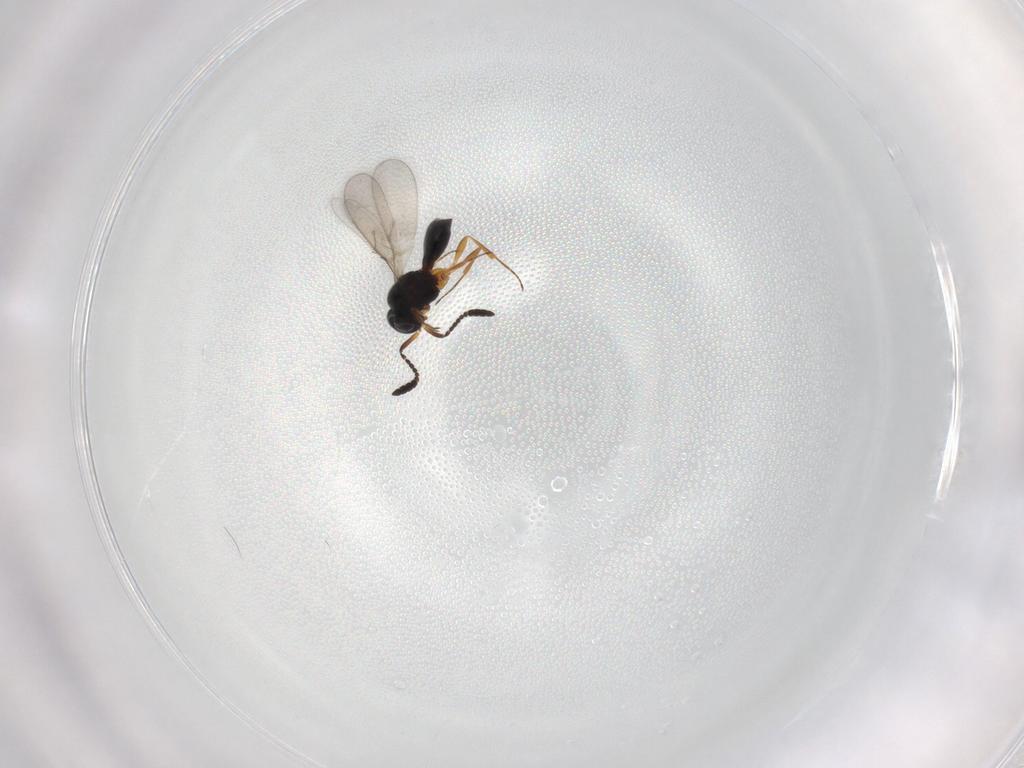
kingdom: Animalia
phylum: Arthropoda
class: Insecta
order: Hymenoptera
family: Scelionidae
